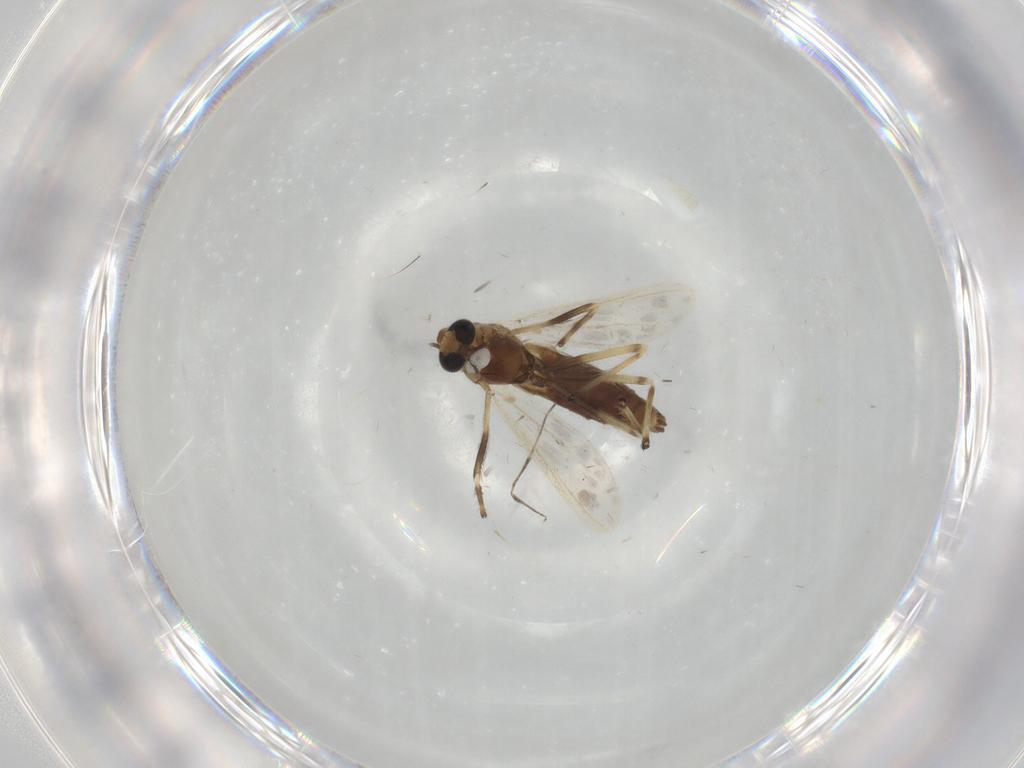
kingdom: Animalia
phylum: Arthropoda
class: Insecta
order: Diptera
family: Chironomidae
